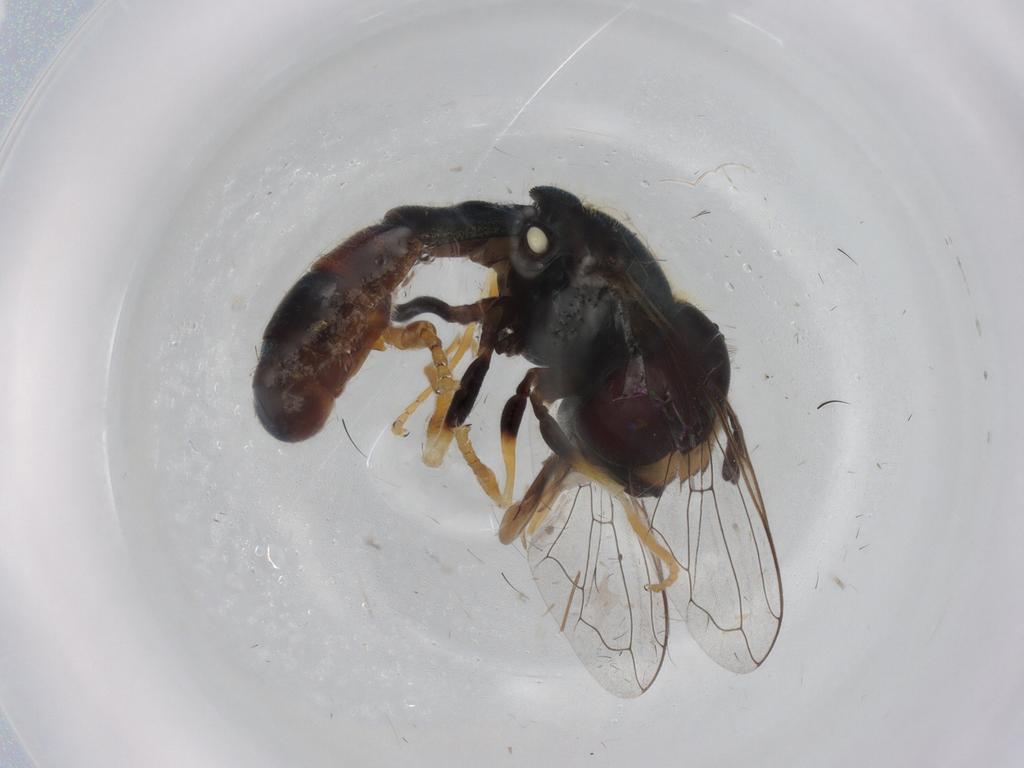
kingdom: Animalia
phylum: Arthropoda
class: Insecta
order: Diptera
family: Syrphidae
